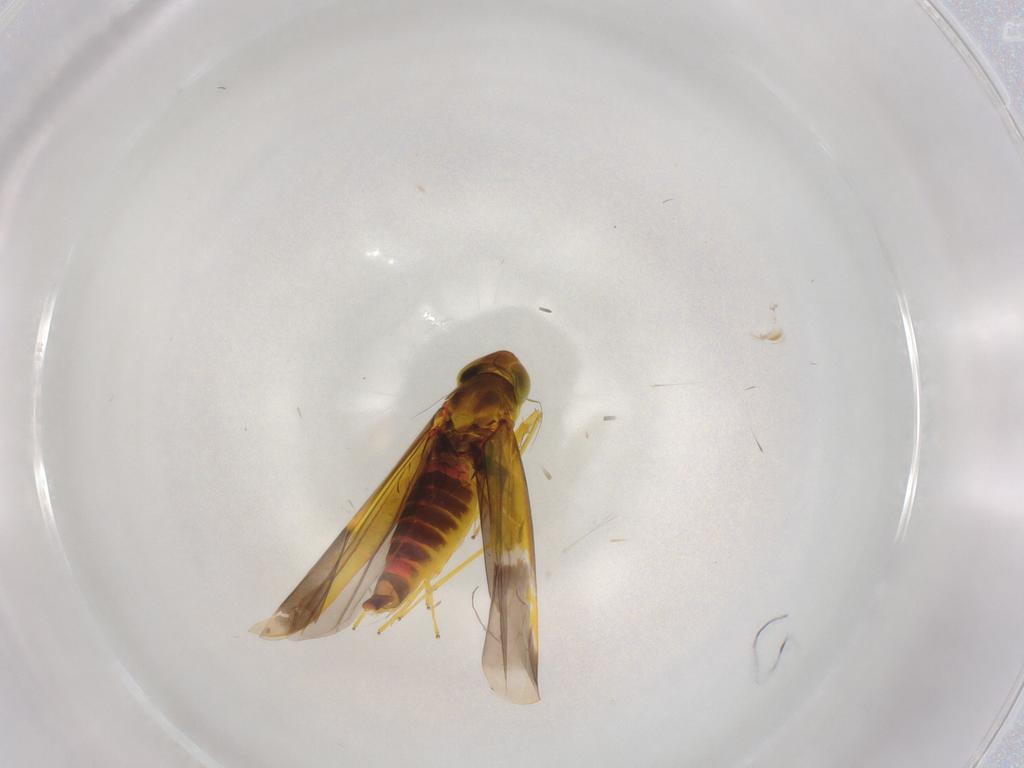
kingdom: Animalia
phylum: Arthropoda
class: Insecta
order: Hemiptera
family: Cicadellidae
